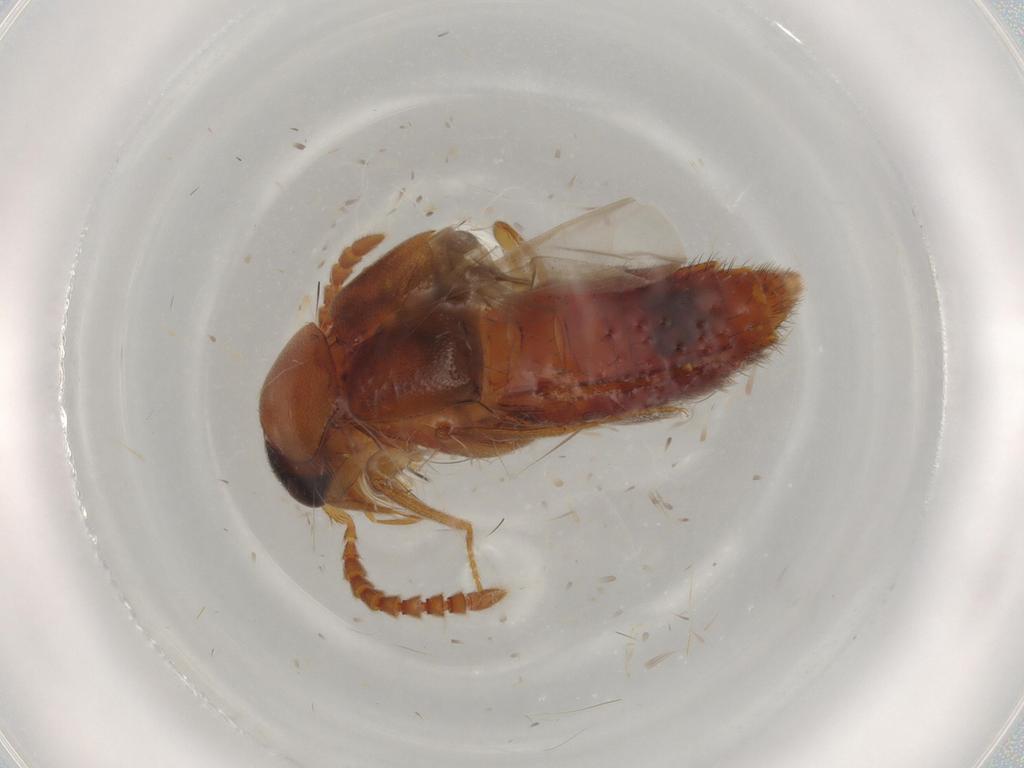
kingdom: Animalia
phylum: Arthropoda
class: Insecta
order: Coleoptera
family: Staphylinidae
